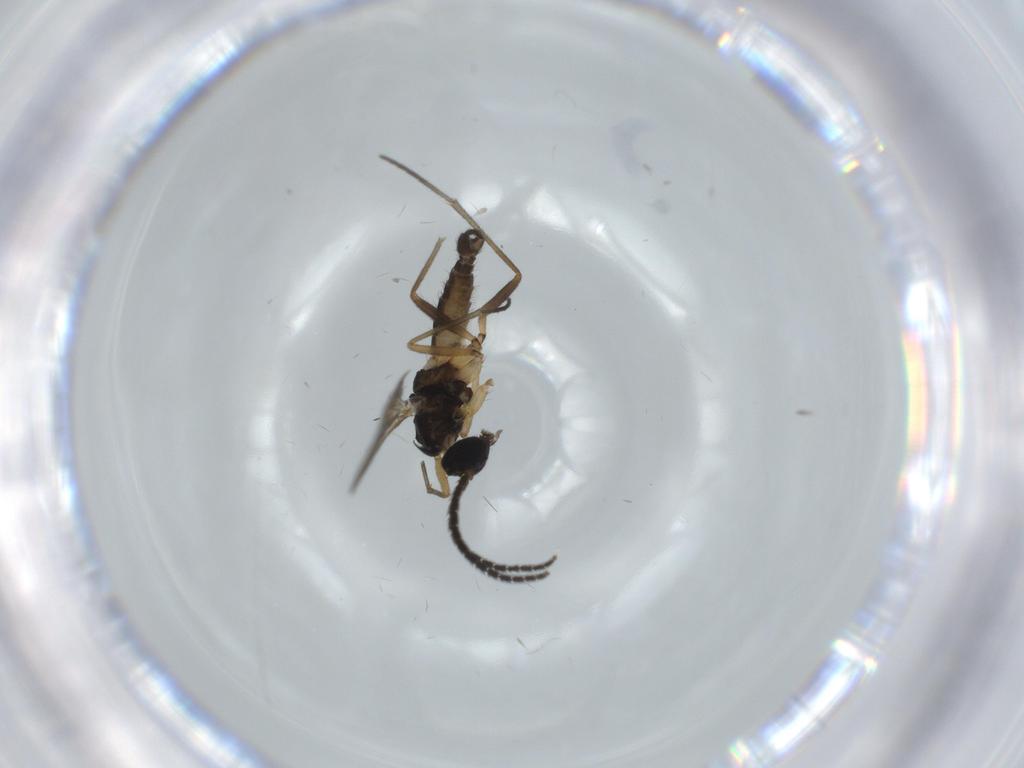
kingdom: Animalia
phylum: Arthropoda
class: Insecta
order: Diptera
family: Sciaridae
